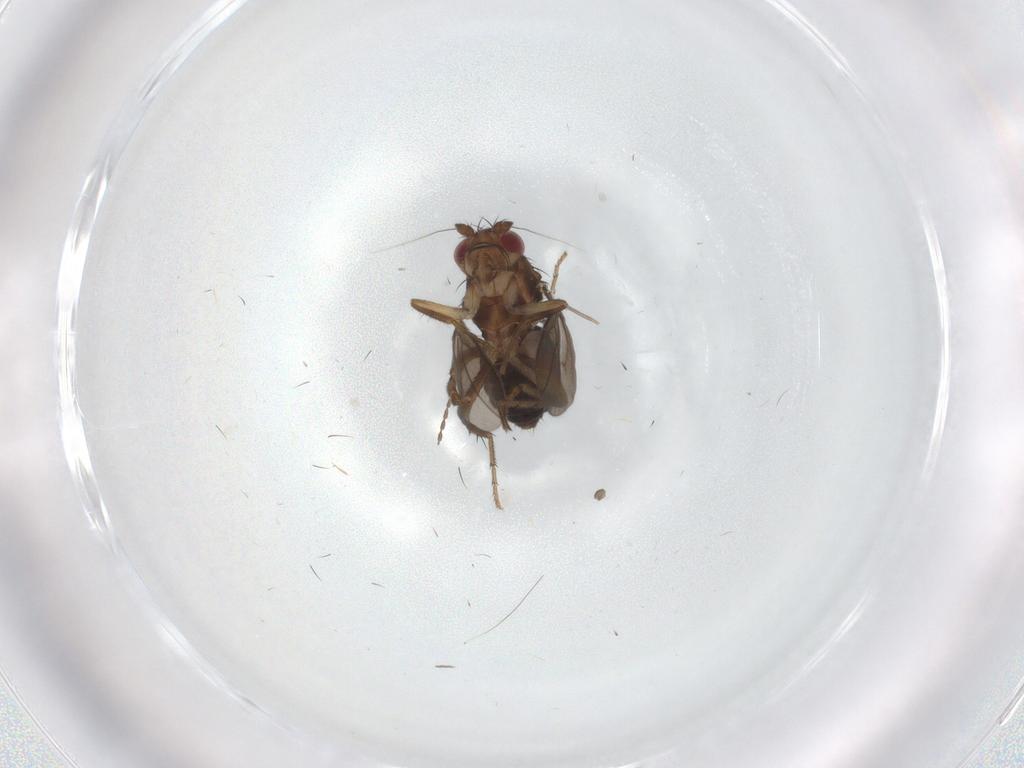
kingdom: Animalia
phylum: Arthropoda
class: Insecta
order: Diptera
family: Sphaeroceridae
